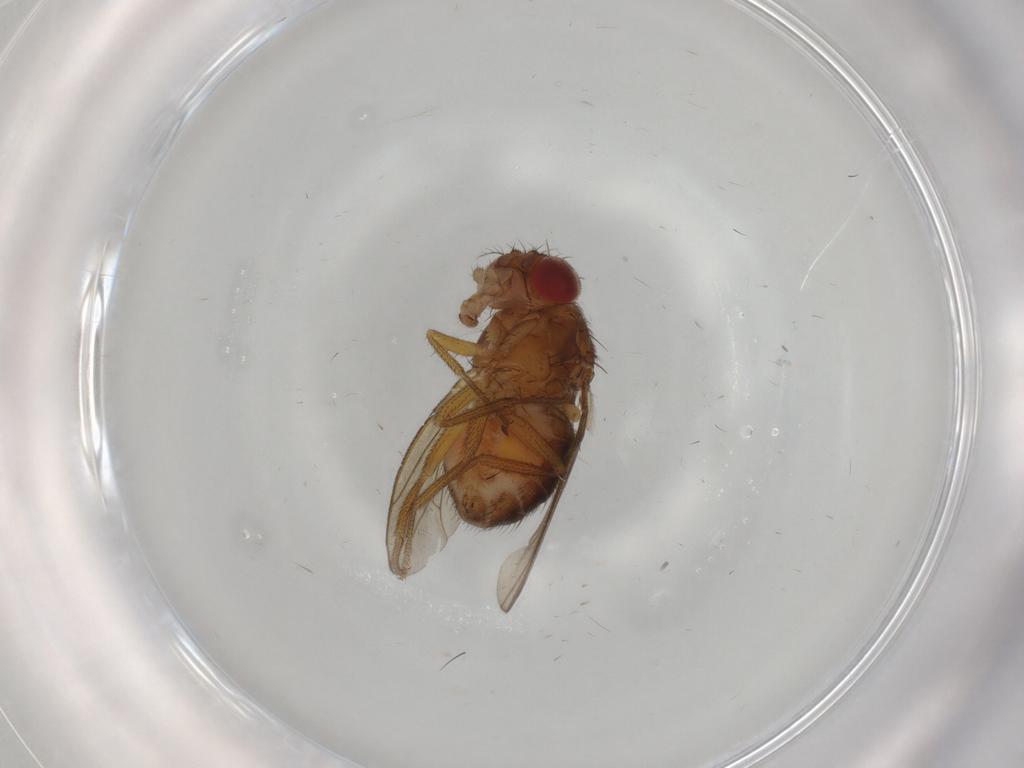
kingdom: Animalia
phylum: Arthropoda
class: Insecta
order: Diptera
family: Drosophilidae
